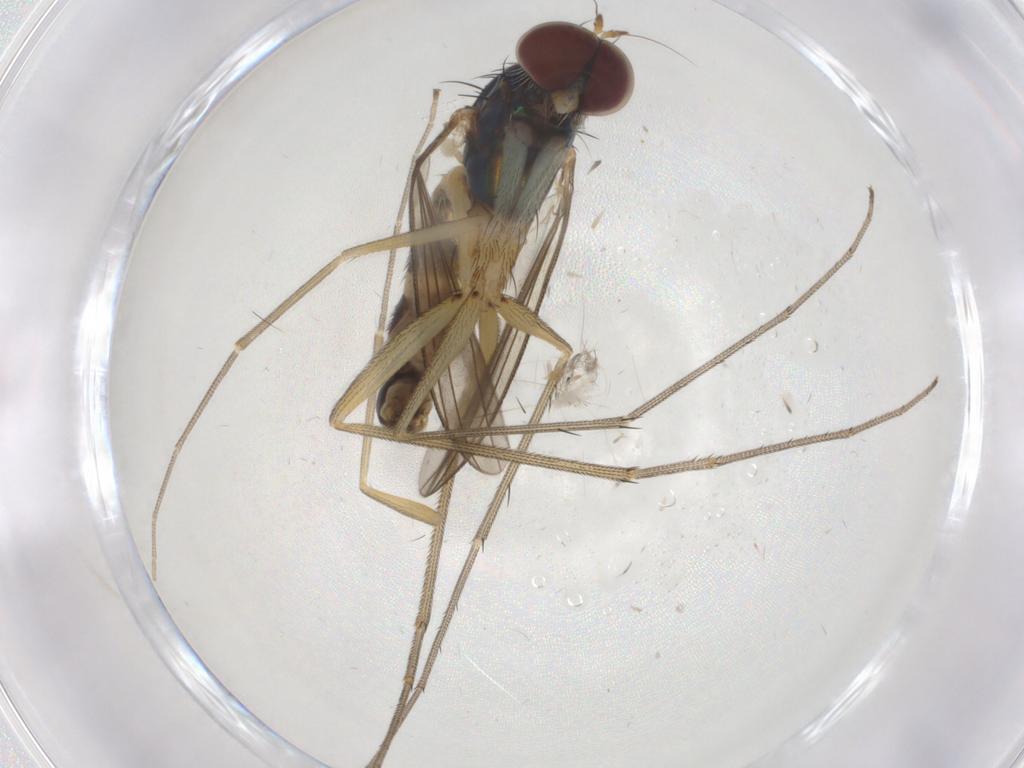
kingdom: Animalia
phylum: Arthropoda
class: Insecta
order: Diptera
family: Dolichopodidae
